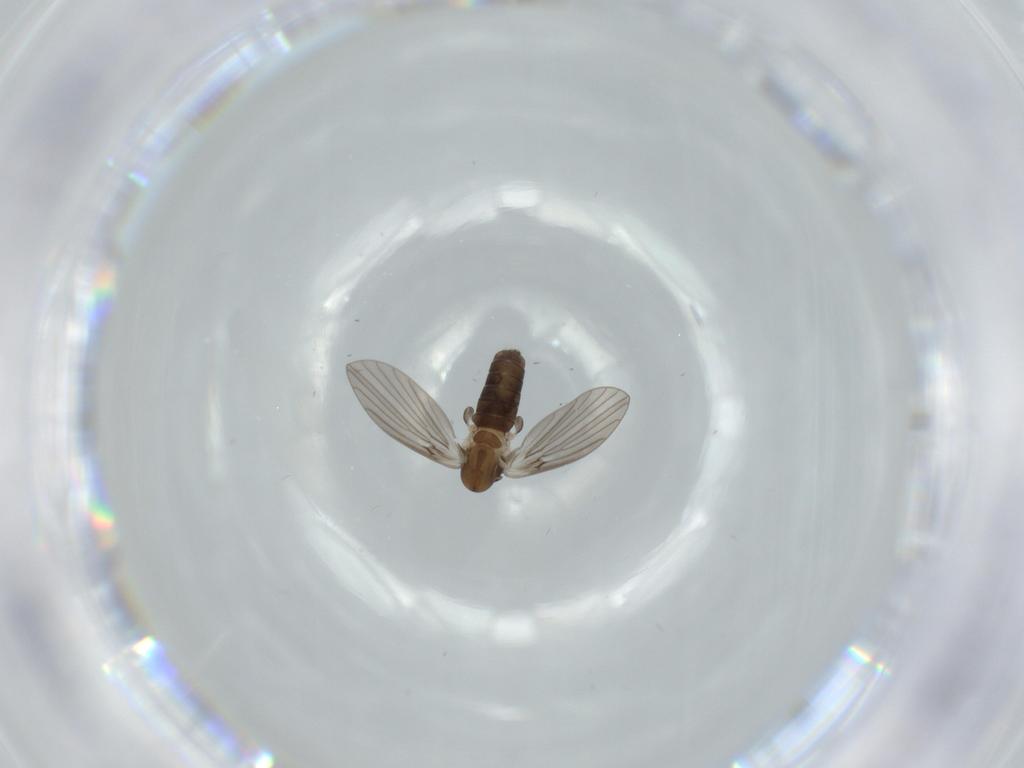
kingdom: Animalia
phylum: Arthropoda
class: Insecta
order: Diptera
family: Psychodidae
